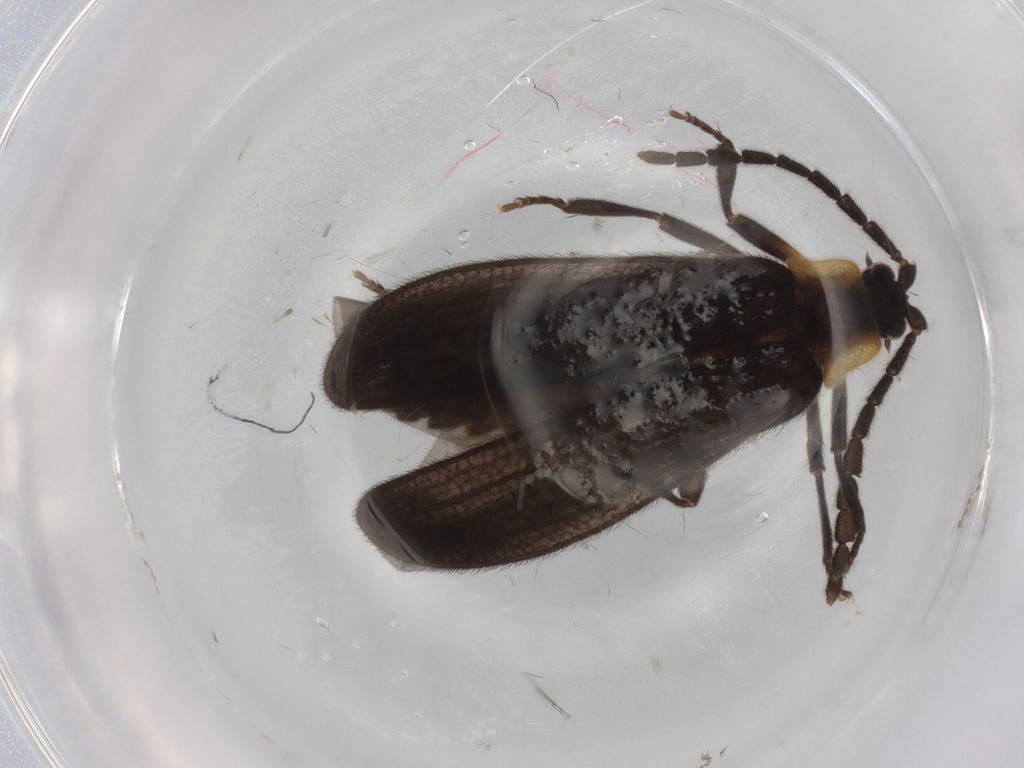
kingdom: Animalia
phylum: Arthropoda
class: Insecta
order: Coleoptera
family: Lycidae
